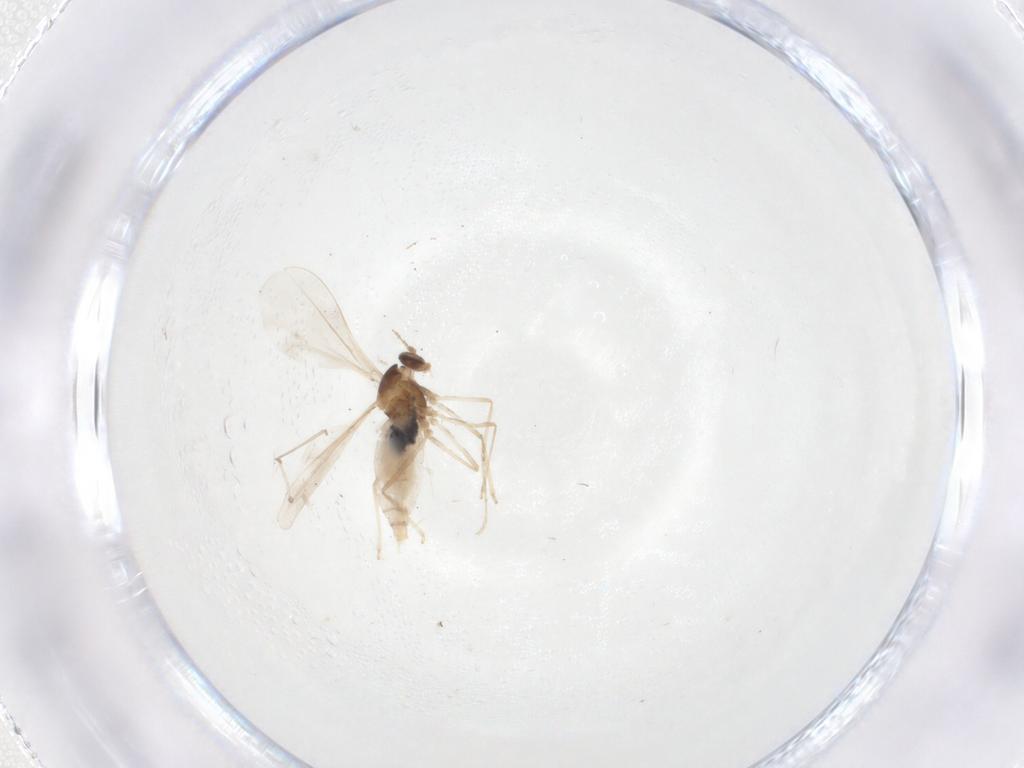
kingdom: Animalia
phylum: Arthropoda
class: Insecta
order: Diptera
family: Cecidomyiidae
